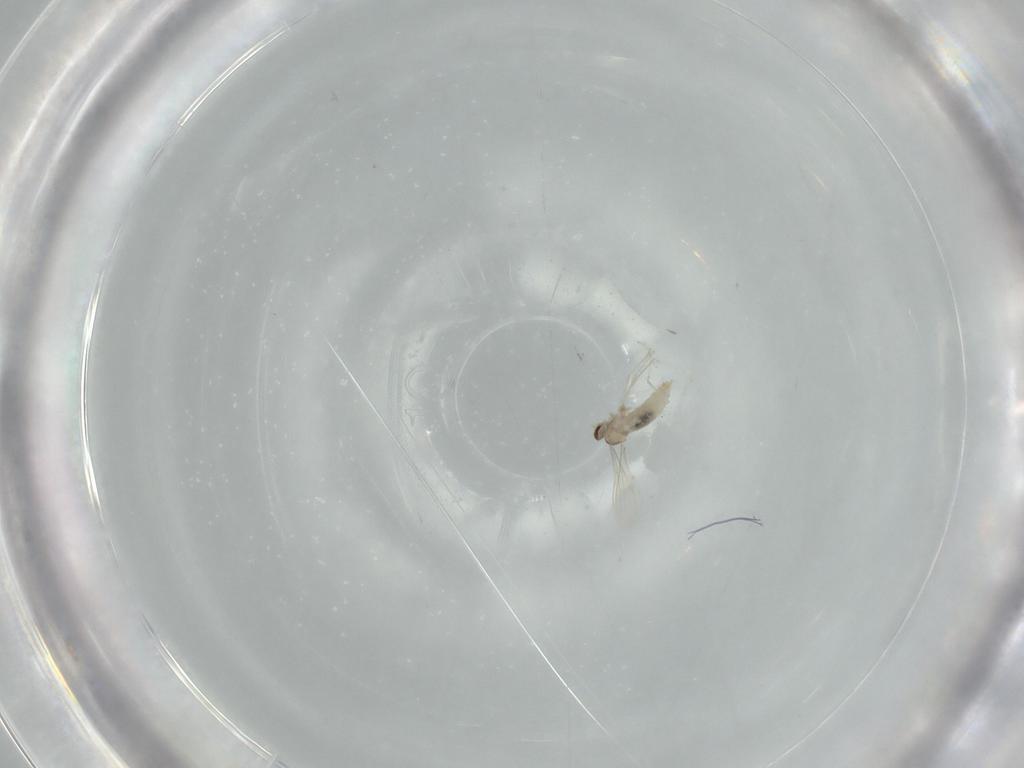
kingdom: Animalia
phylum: Arthropoda
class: Insecta
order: Diptera
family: Cecidomyiidae
